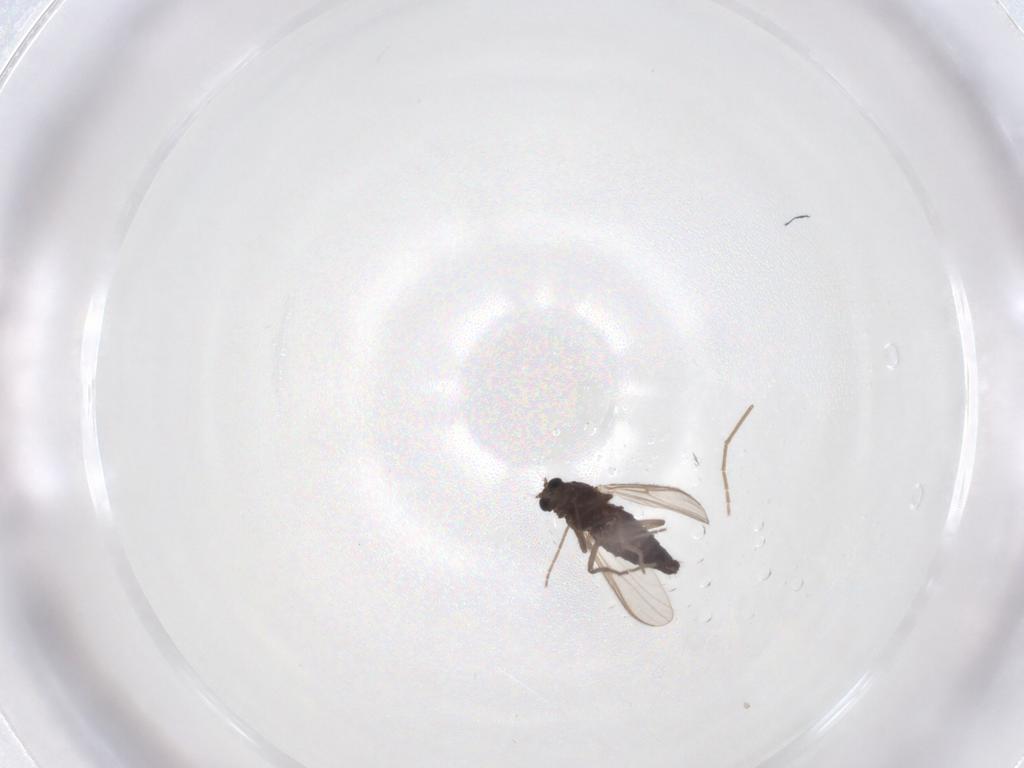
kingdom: Animalia
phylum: Arthropoda
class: Insecta
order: Diptera
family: Chironomidae
